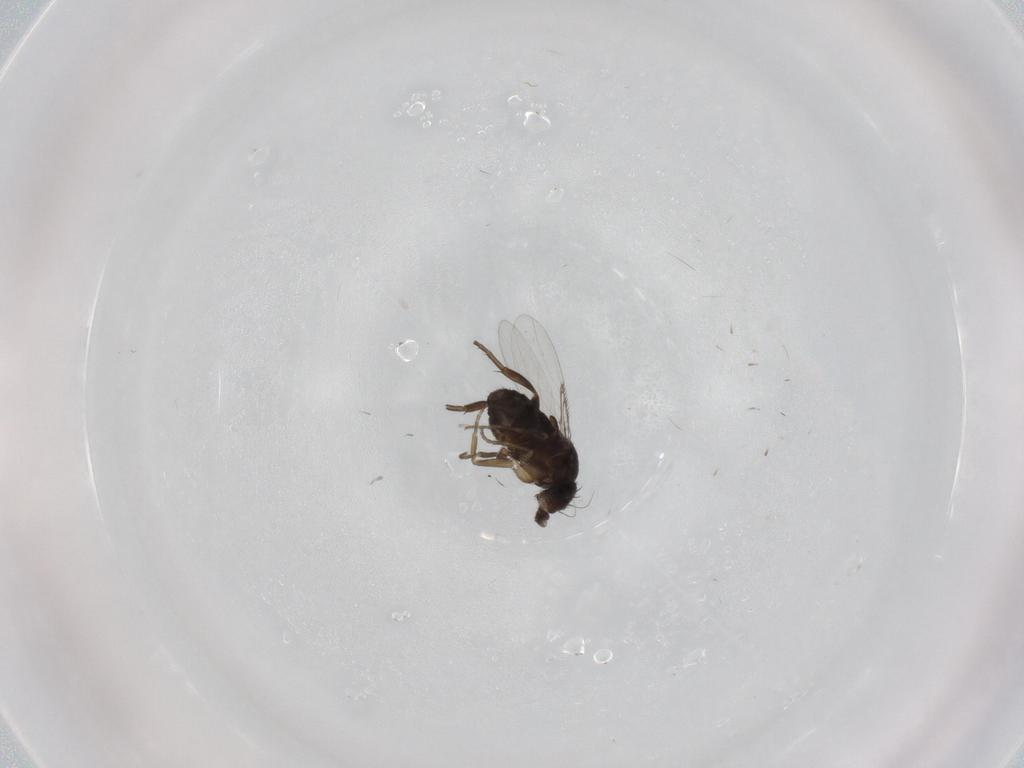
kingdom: Animalia
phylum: Arthropoda
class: Insecta
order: Diptera
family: Phoridae
